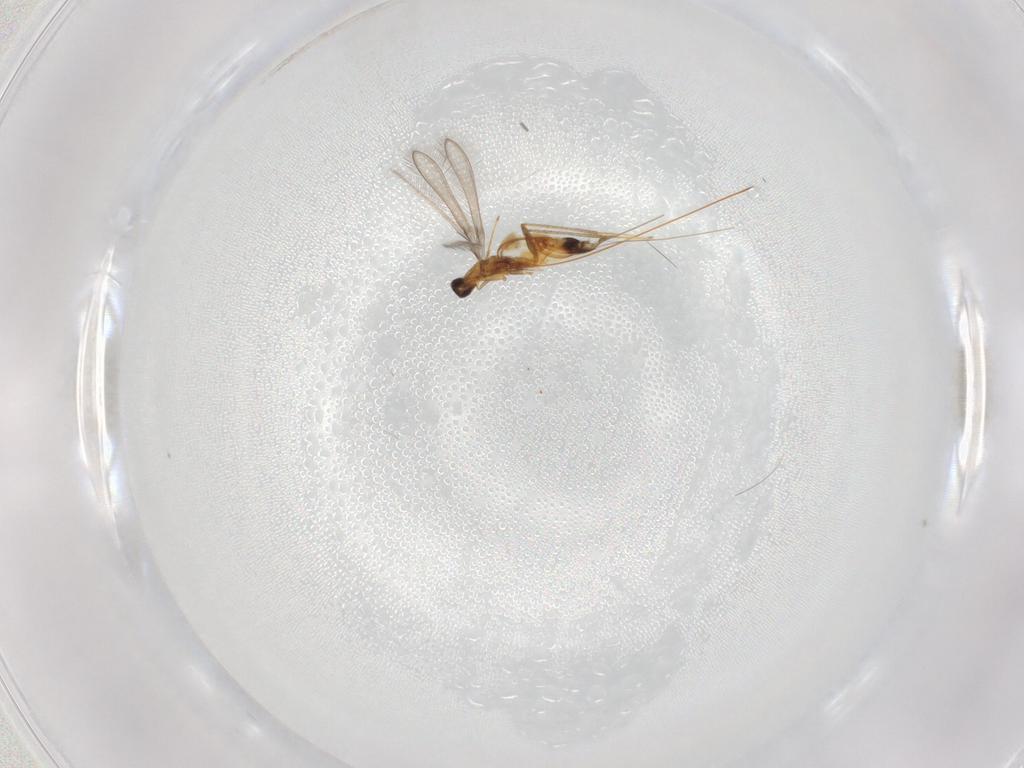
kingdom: Animalia
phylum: Arthropoda
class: Insecta
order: Hymenoptera
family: Mymaridae
